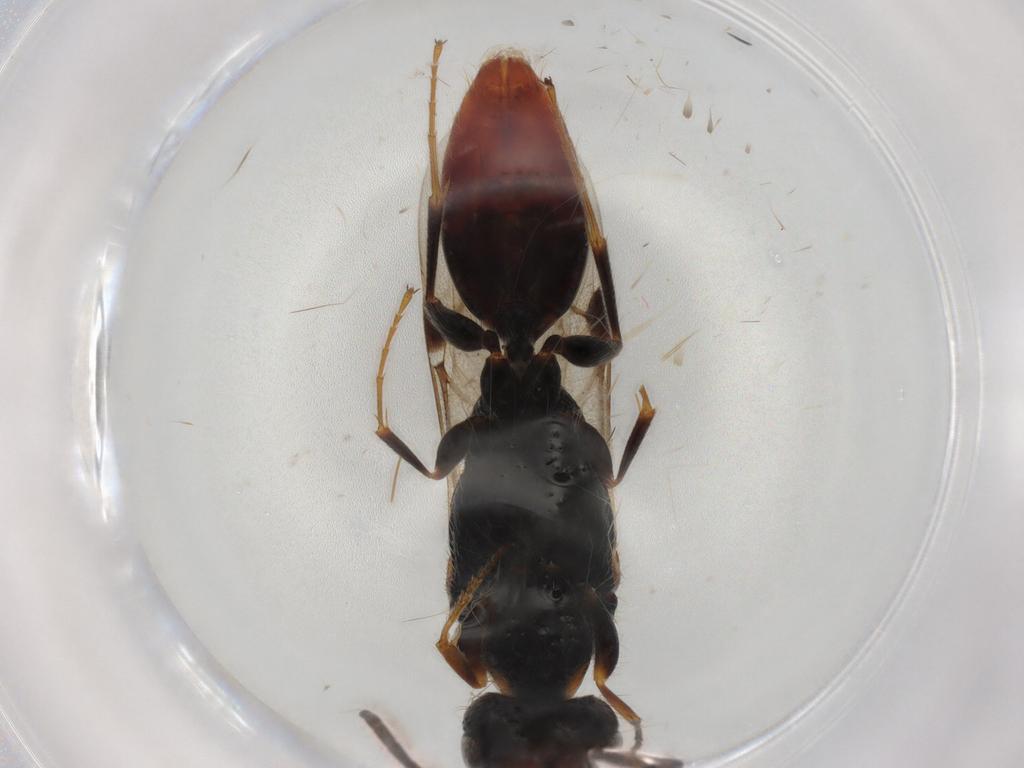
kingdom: Animalia
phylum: Arthropoda
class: Insecta
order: Hymenoptera
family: Bethylidae
